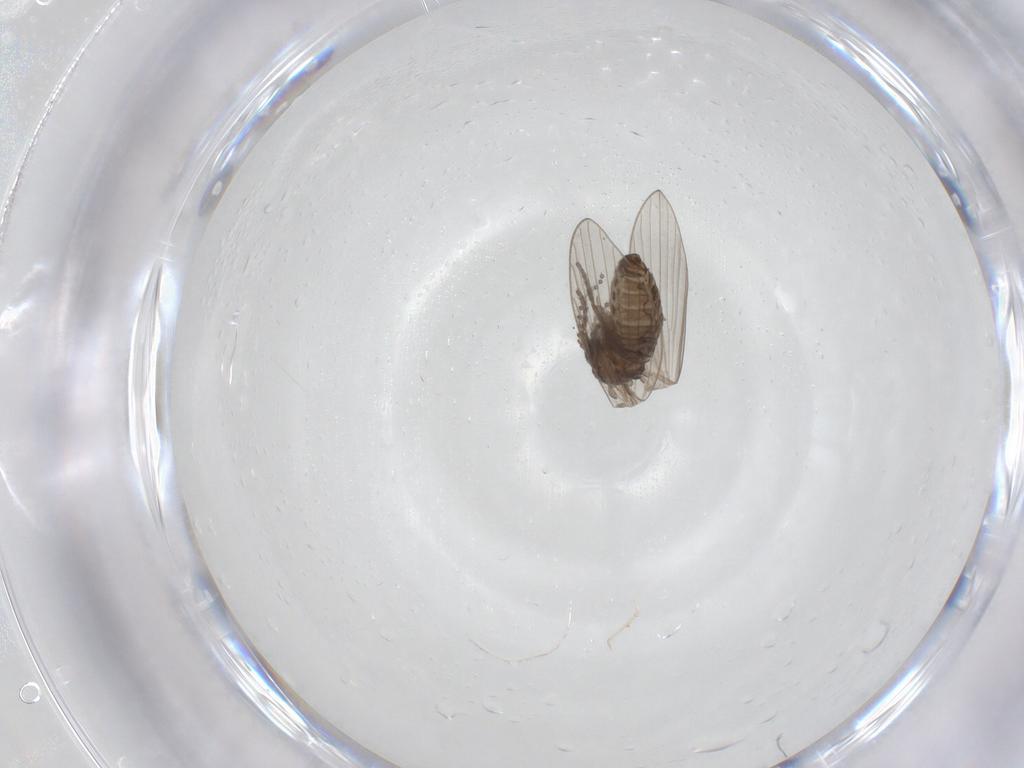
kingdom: Animalia
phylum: Arthropoda
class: Insecta
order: Diptera
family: Psychodidae
